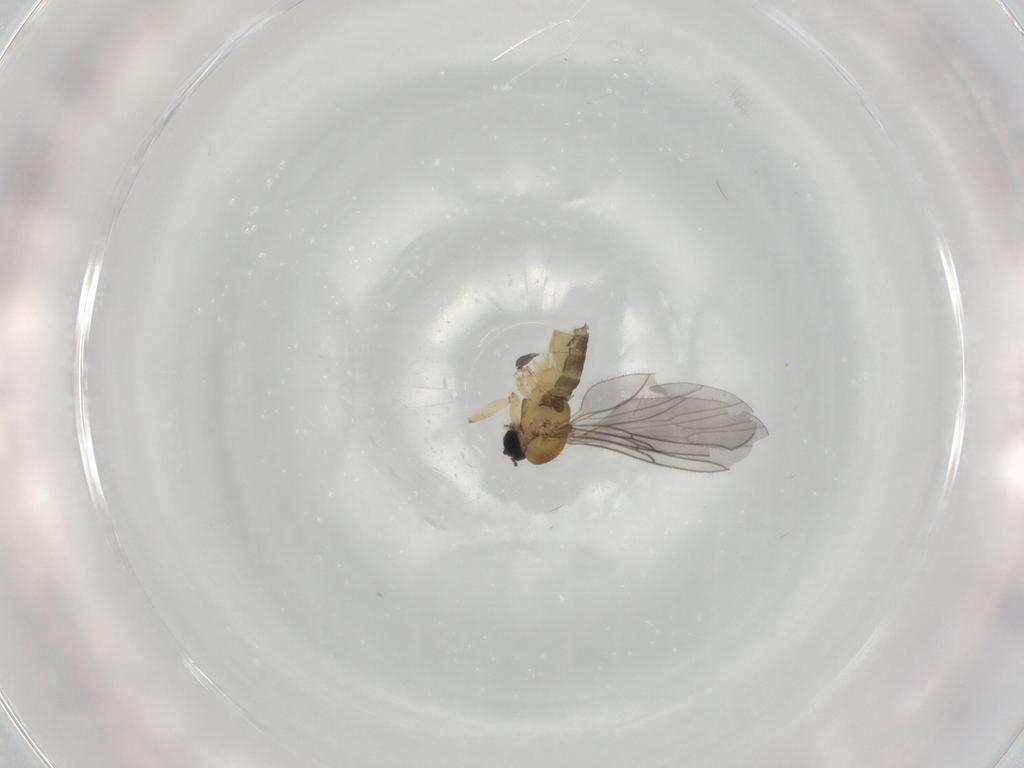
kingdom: Animalia
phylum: Arthropoda
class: Insecta
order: Diptera
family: Sciaridae
